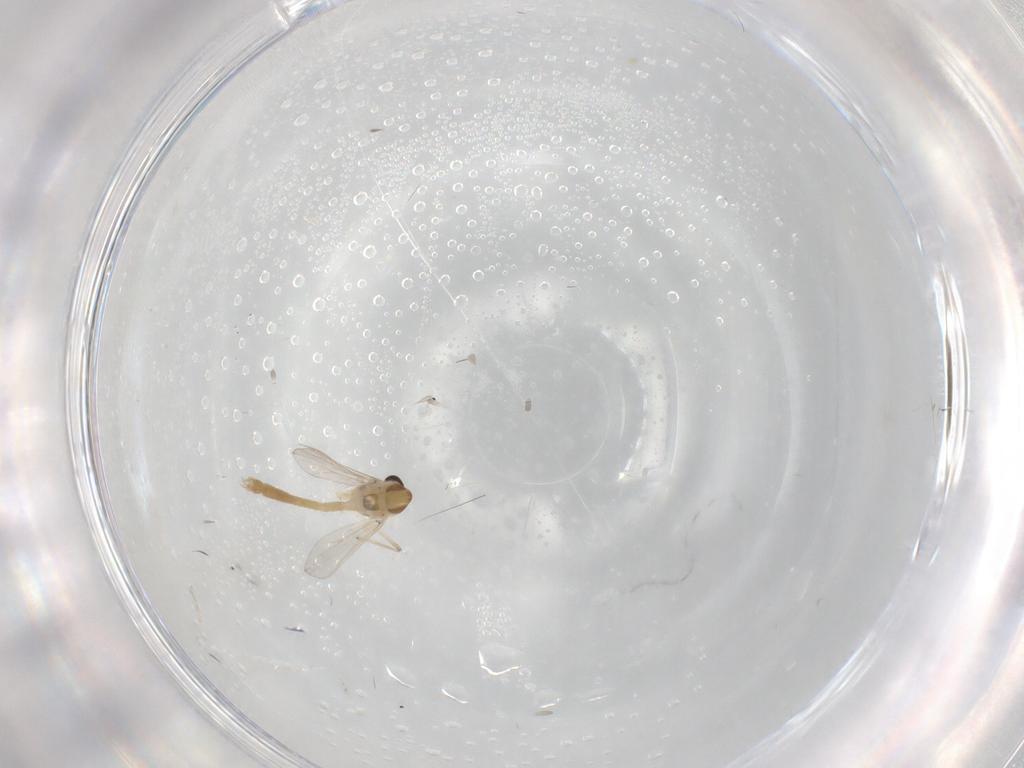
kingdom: Animalia
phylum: Arthropoda
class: Insecta
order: Diptera
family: Chironomidae
